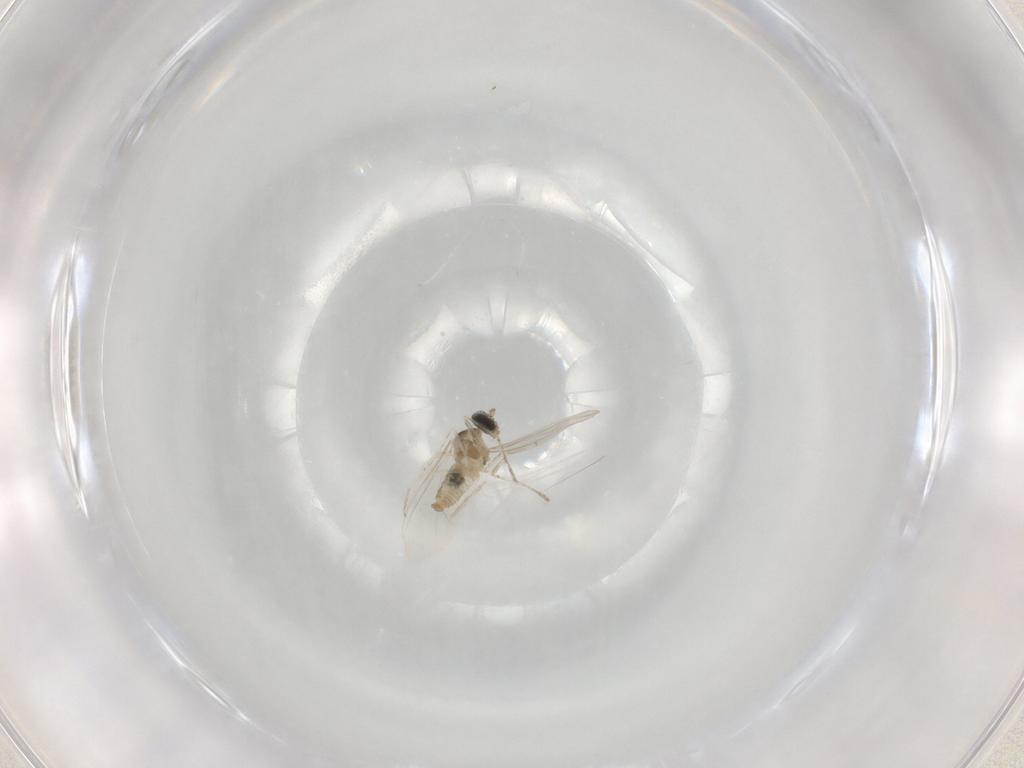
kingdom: Animalia
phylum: Arthropoda
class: Insecta
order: Diptera
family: Cecidomyiidae
